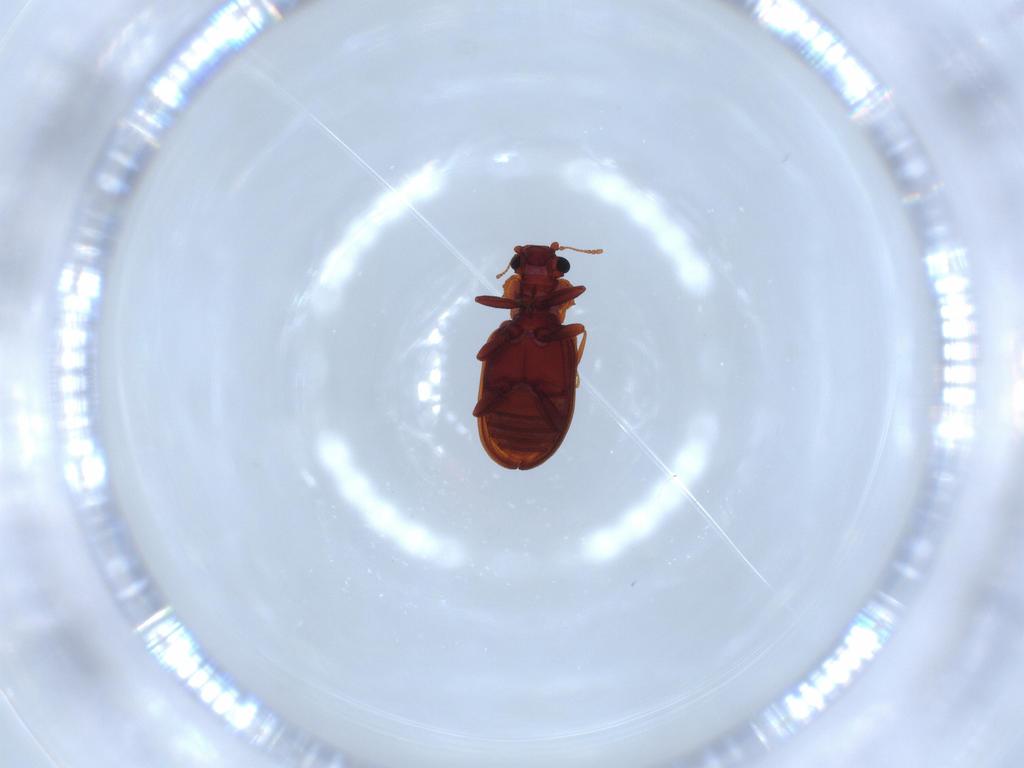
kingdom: Animalia
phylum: Arthropoda
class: Insecta
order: Coleoptera
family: Latridiidae
